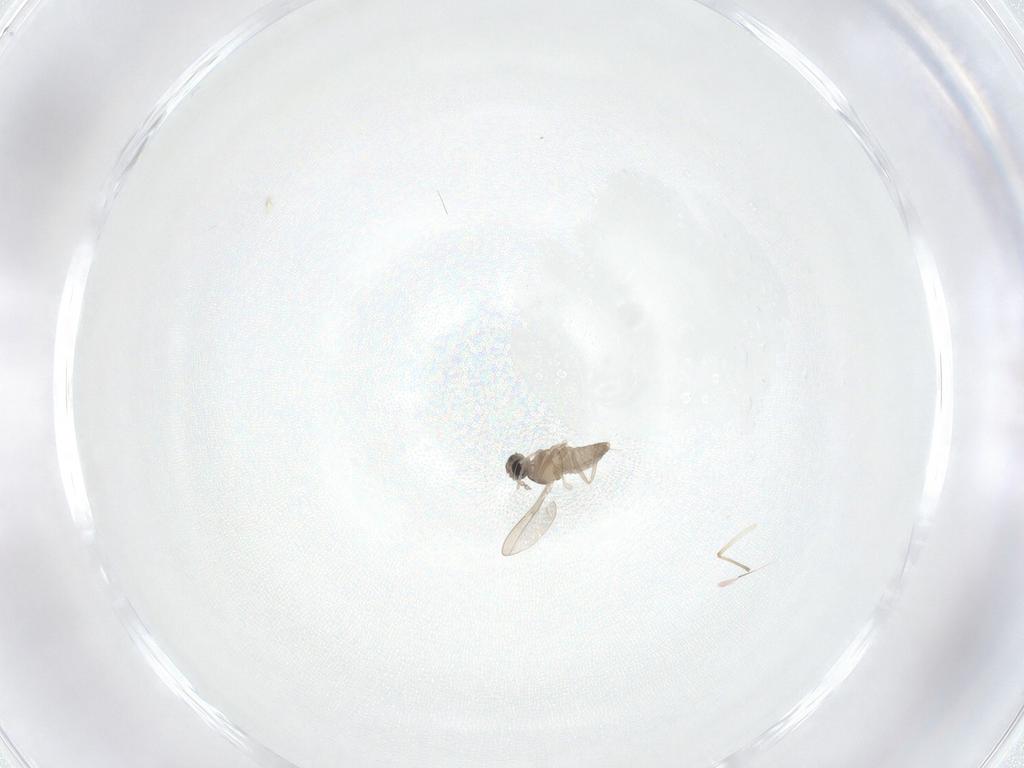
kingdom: Animalia
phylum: Arthropoda
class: Insecta
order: Diptera
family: Cecidomyiidae
